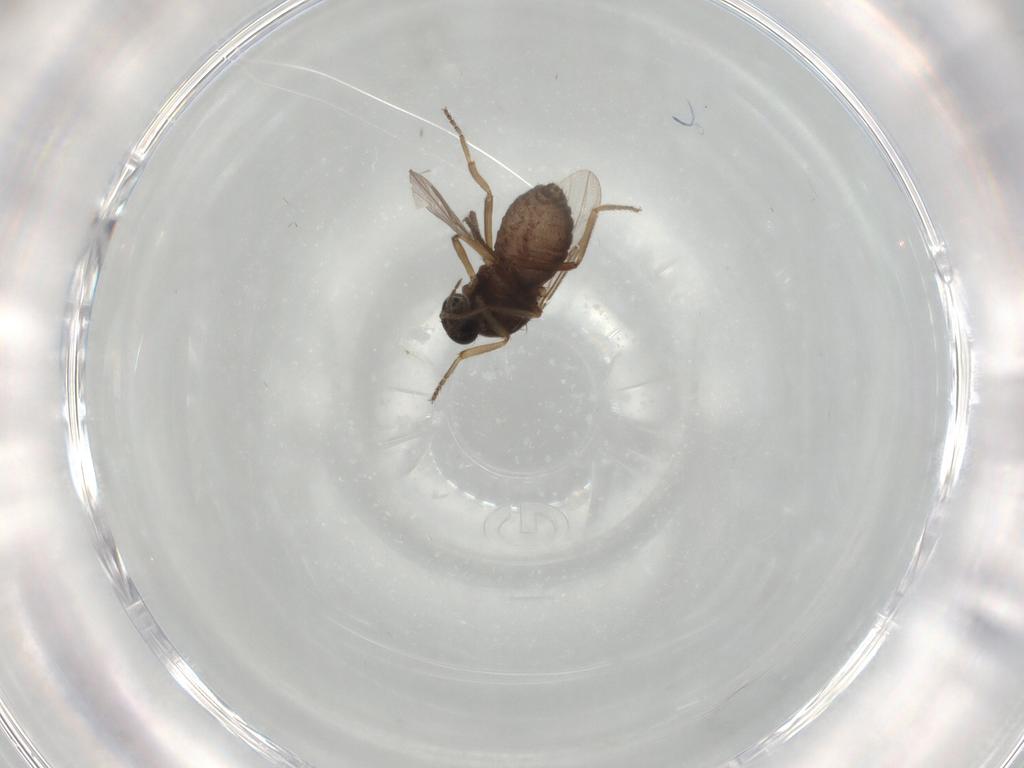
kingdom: Animalia
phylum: Arthropoda
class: Insecta
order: Diptera
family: Ceratopogonidae
